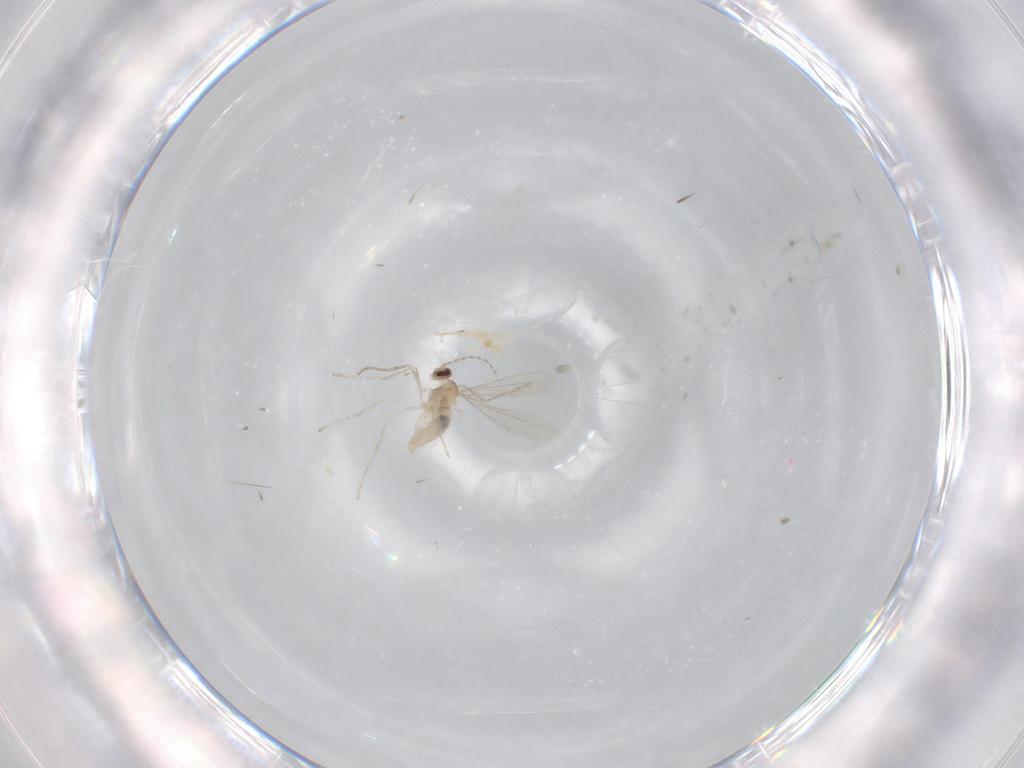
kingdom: Animalia
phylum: Arthropoda
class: Insecta
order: Diptera
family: Cecidomyiidae
